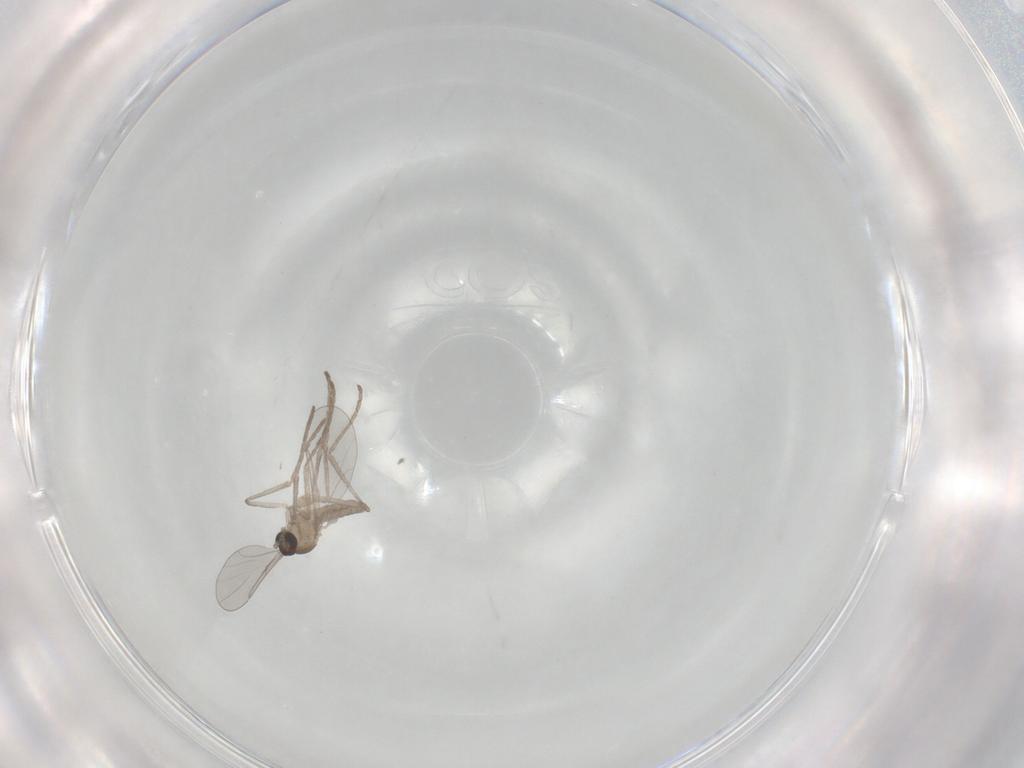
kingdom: Animalia
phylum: Arthropoda
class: Insecta
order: Diptera
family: Cecidomyiidae
